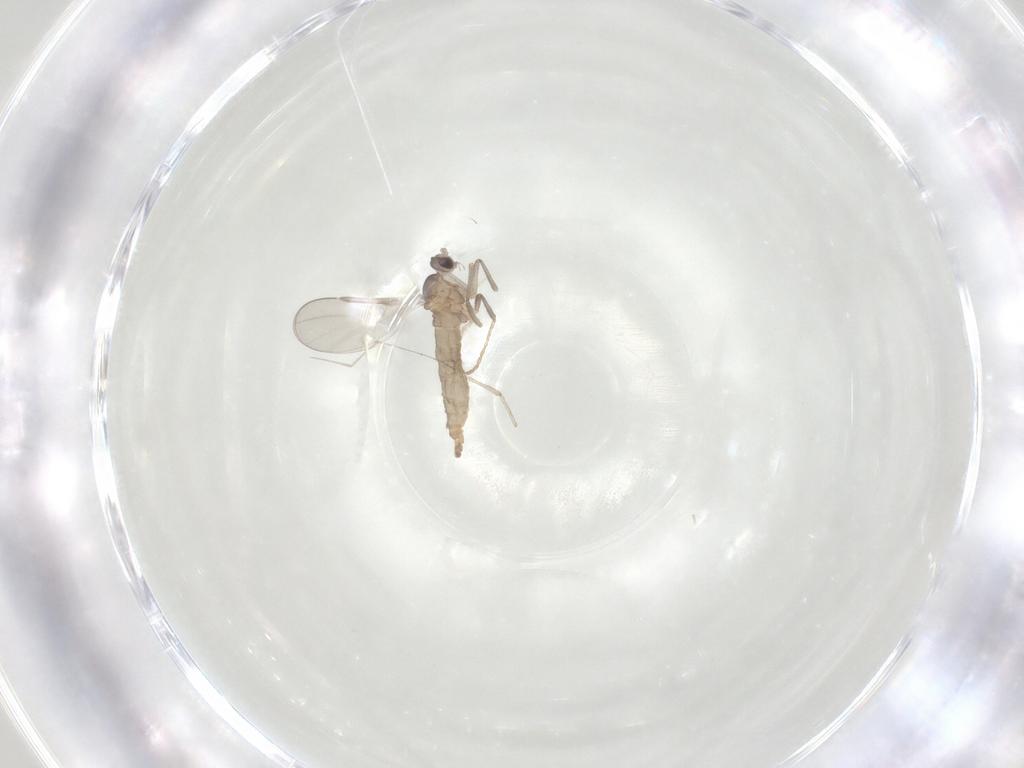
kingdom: Animalia
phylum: Arthropoda
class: Insecta
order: Diptera
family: Cecidomyiidae
